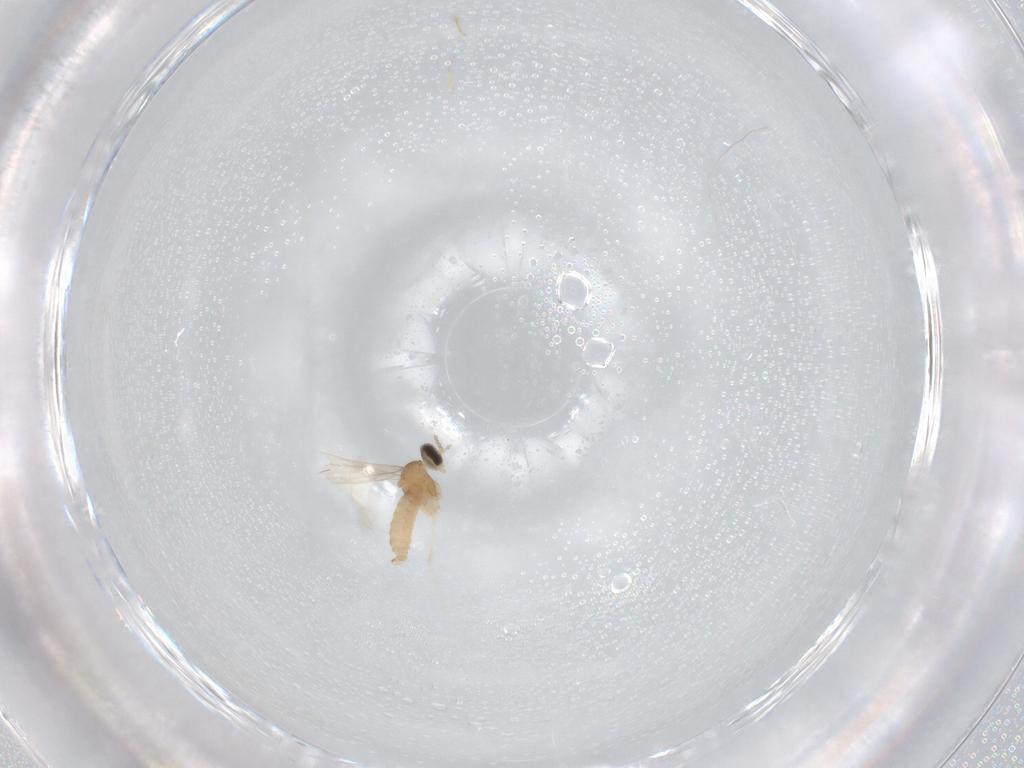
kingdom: Animalia
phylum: Arthropoda
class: Insecta
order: Diptera
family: Cecidomyiidae
